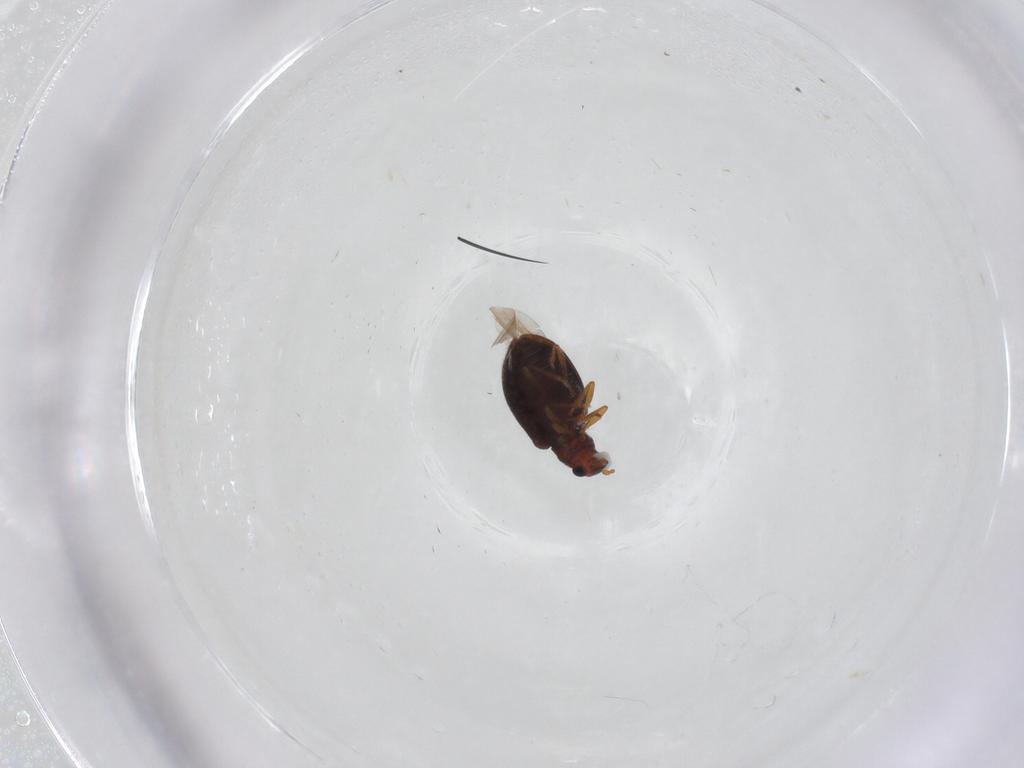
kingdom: Animalia
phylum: Arthropoda
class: Insecta
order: Coleoptera
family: Latridiidae
